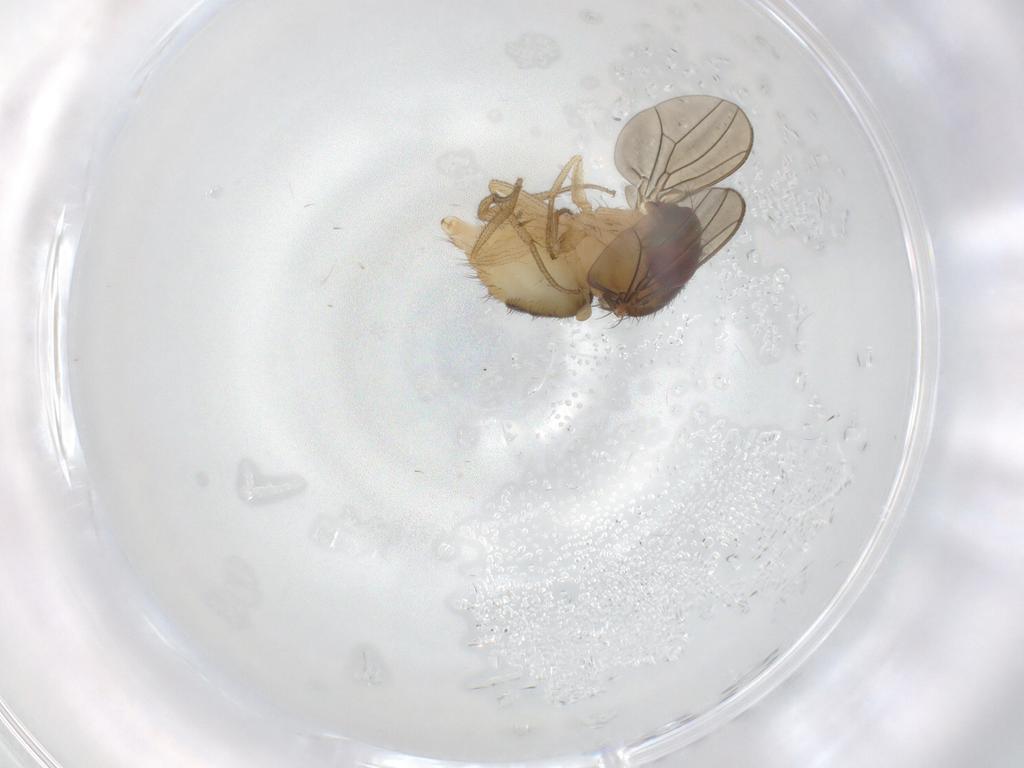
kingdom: Animalia
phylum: Arthropoda
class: Insecta
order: Diptera
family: Drosophilidae
